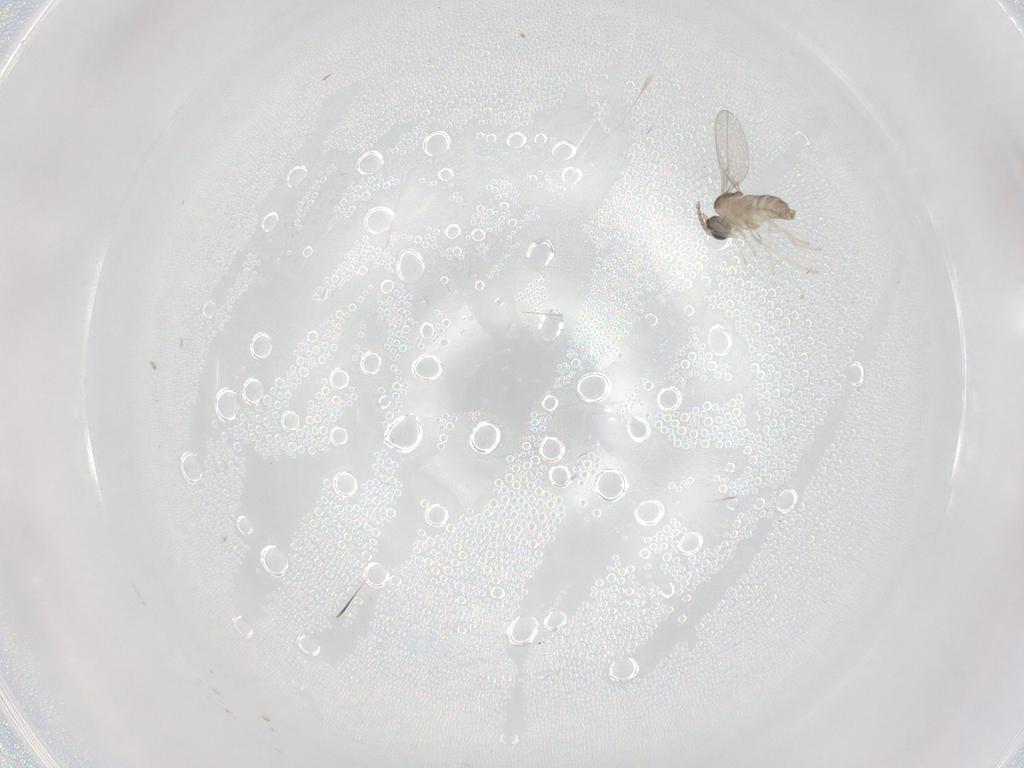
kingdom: Animalia
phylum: Arthropoda
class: Insecta
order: Diptera
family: Cecidomyiidae
